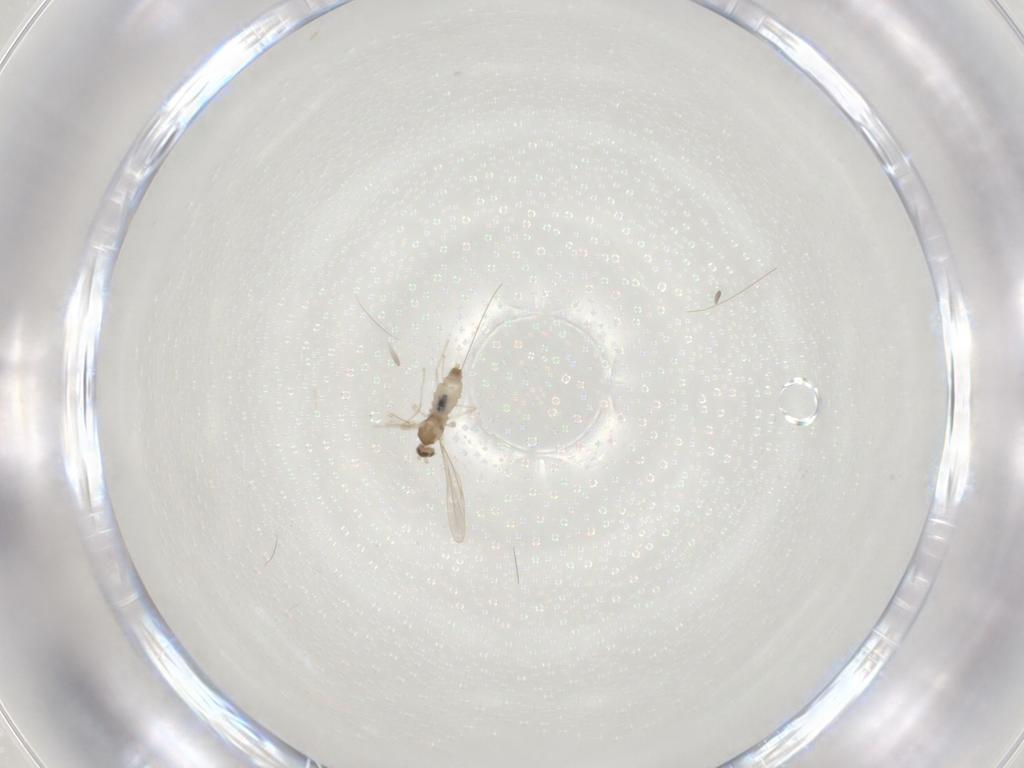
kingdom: Animalia
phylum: Arthropoda
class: Insecta
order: Diptera
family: Cecidomyiidae
